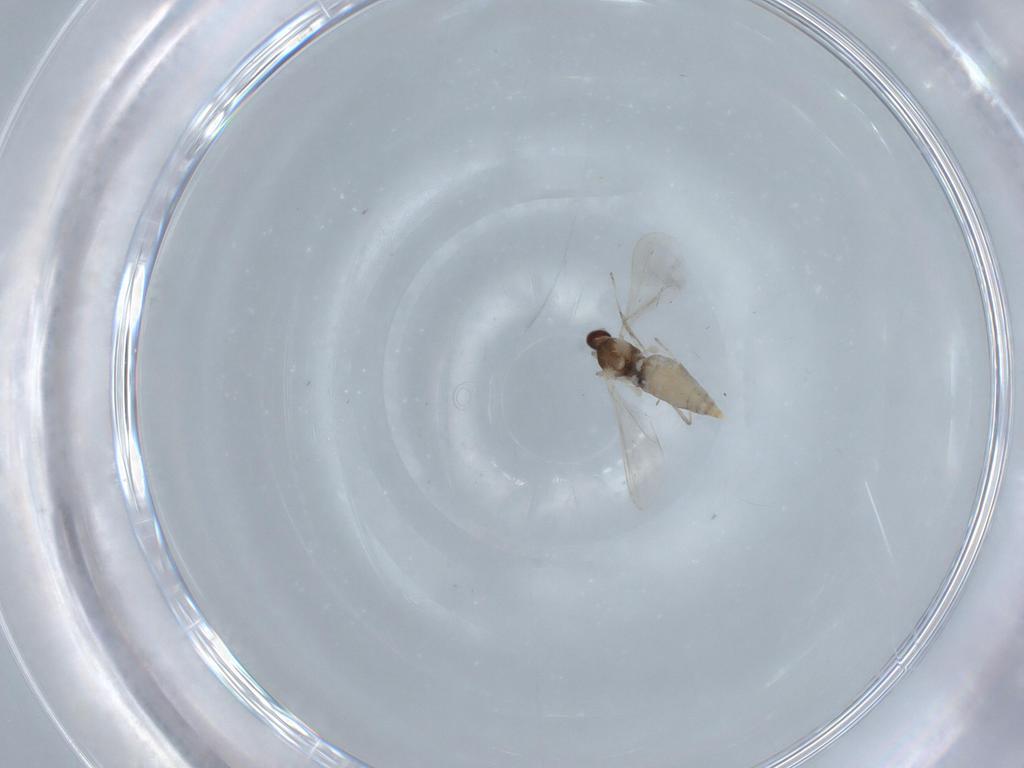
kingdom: Animalia
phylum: Arthropoda
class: Insecta
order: Diptera
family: Cecidomyiidae
